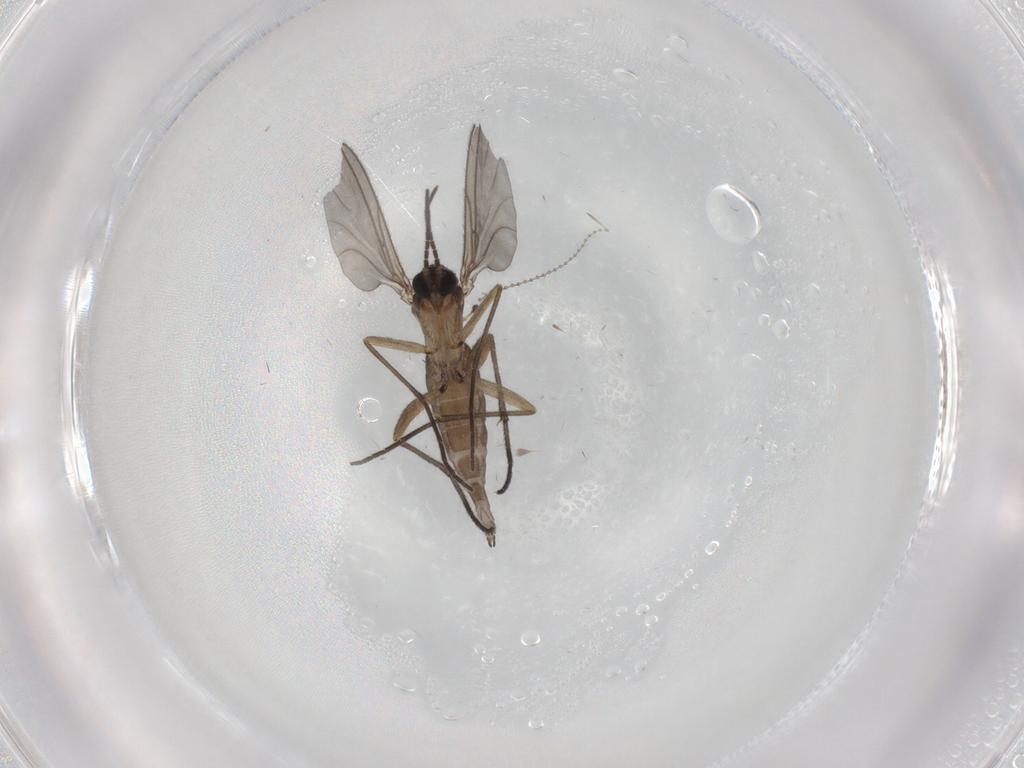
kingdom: Animalia
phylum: Arthropoda
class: Insecta
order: Diptera
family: Sciaridae
